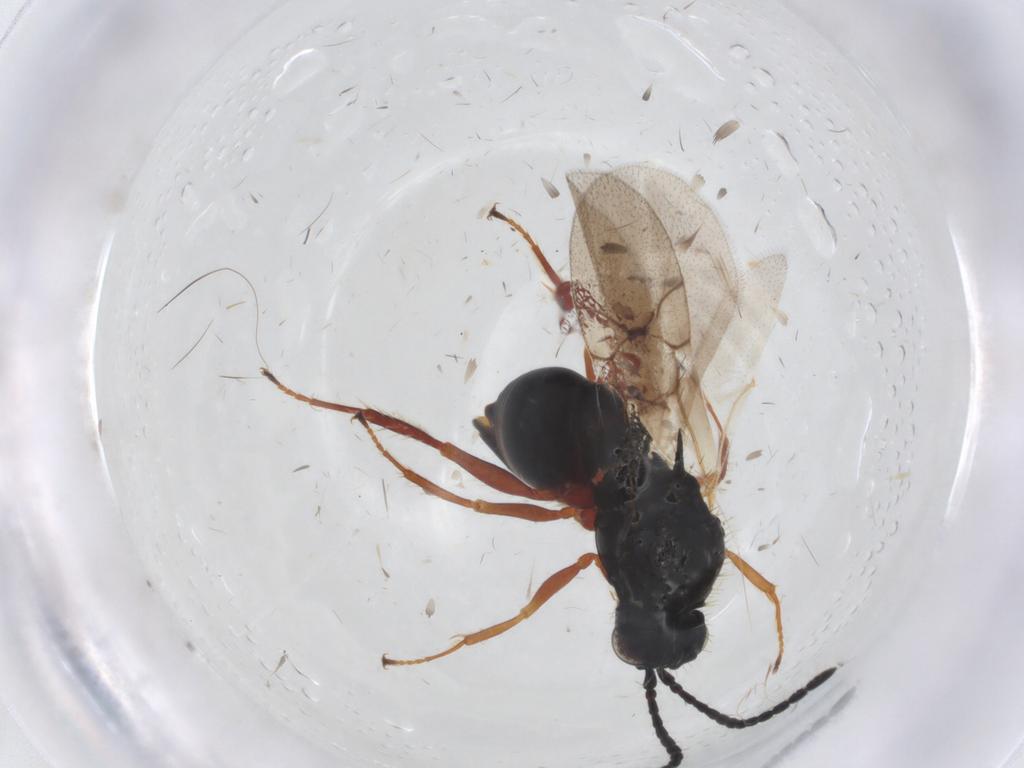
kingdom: Animalia
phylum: Arthropoda
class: Insecta
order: Hymenoptera
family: Figitidae
